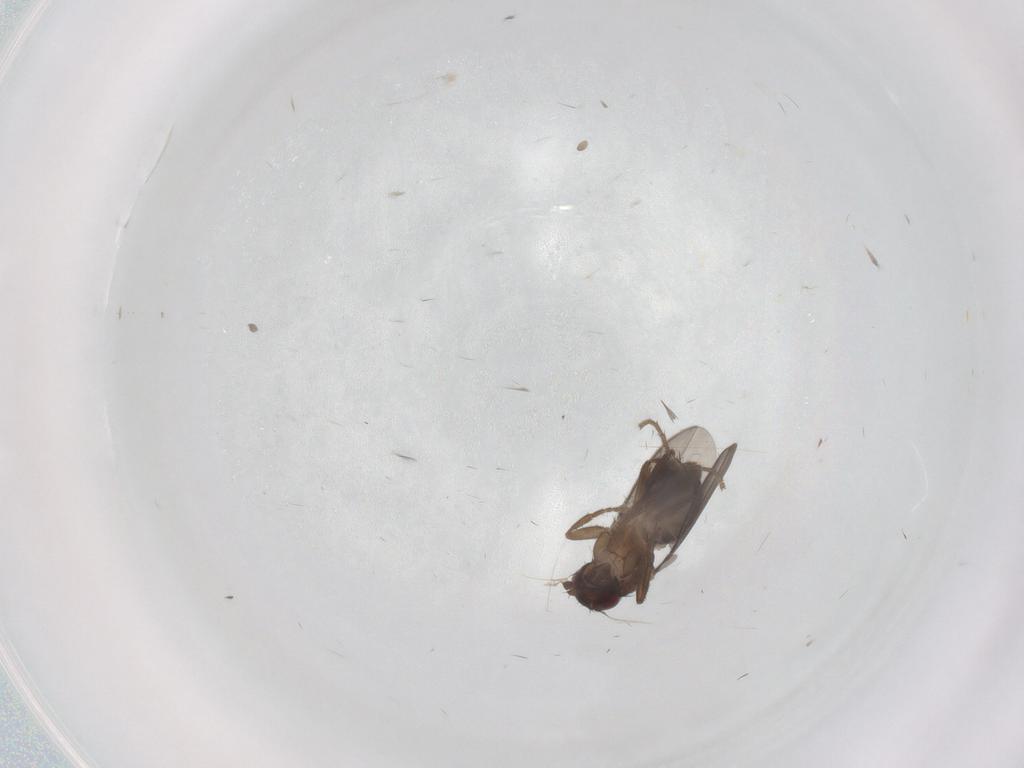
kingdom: Animalia
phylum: Arthropoda
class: Insecta
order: Diptera
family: Chironomidae
